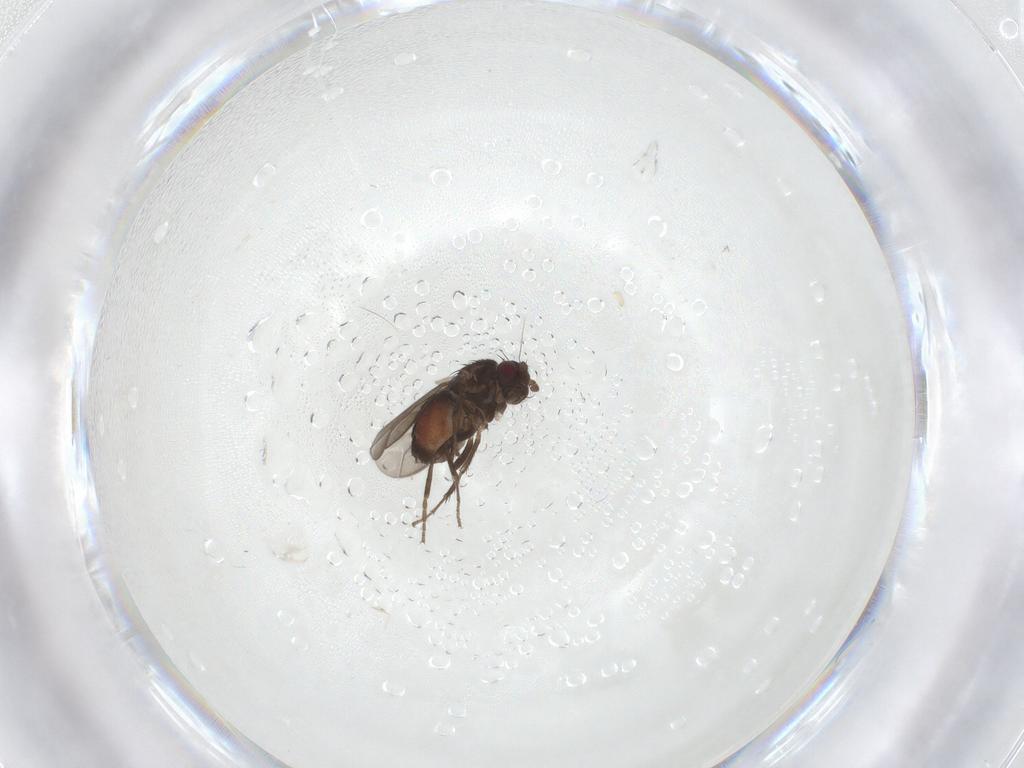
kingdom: Animalia
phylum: Arthropoda
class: Insecta
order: Diptera
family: Sphaeroceridae
